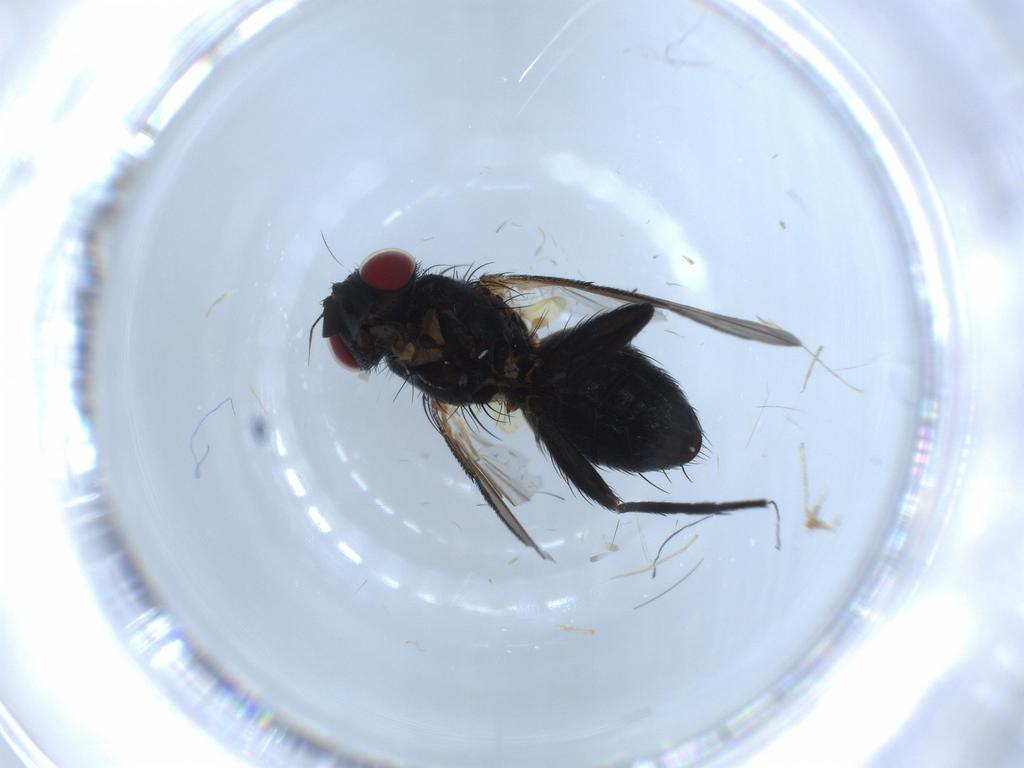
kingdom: Animalia
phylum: Arthropoda
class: Insecta
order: Diptera
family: Tachinidae
